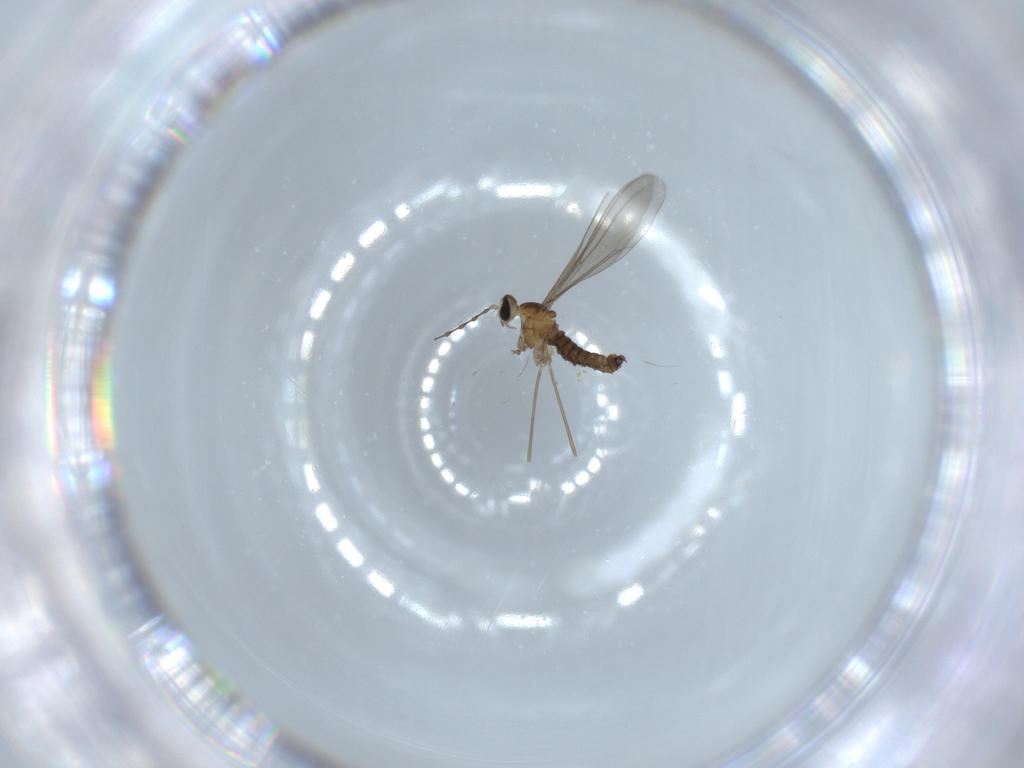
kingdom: Animalia
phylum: Arthropoda
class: Insecta
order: Diptera
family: Cecidomyiidae
